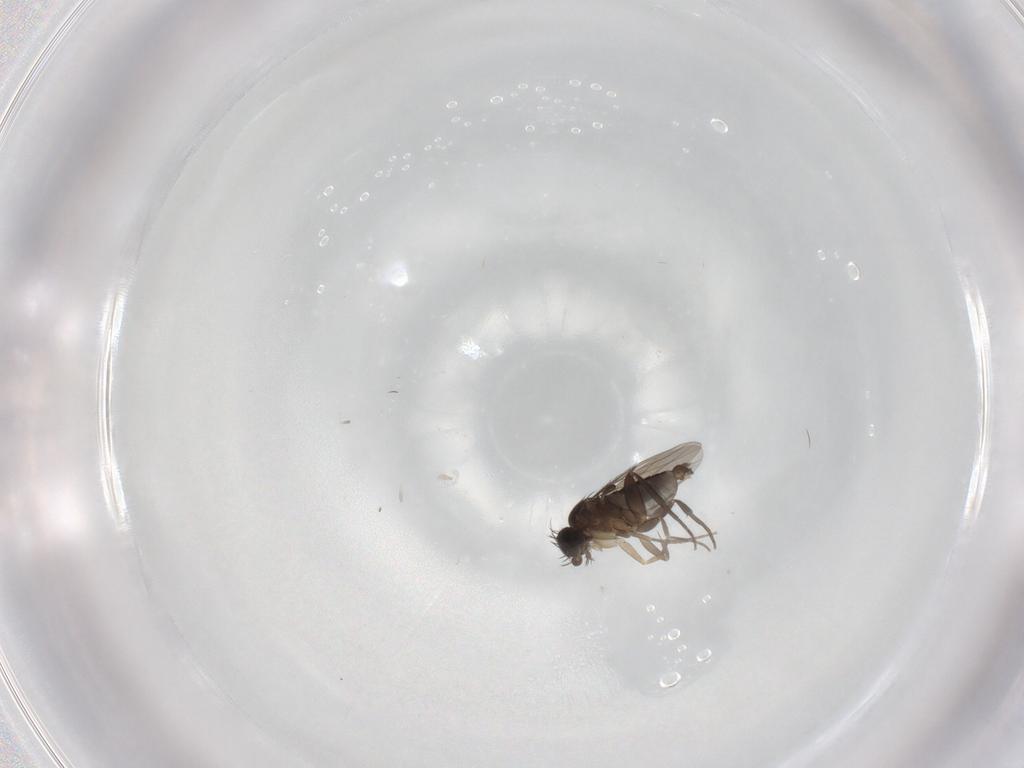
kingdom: Animalia
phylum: Arthropoda
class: Insecta
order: Diptera
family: Phoridae
